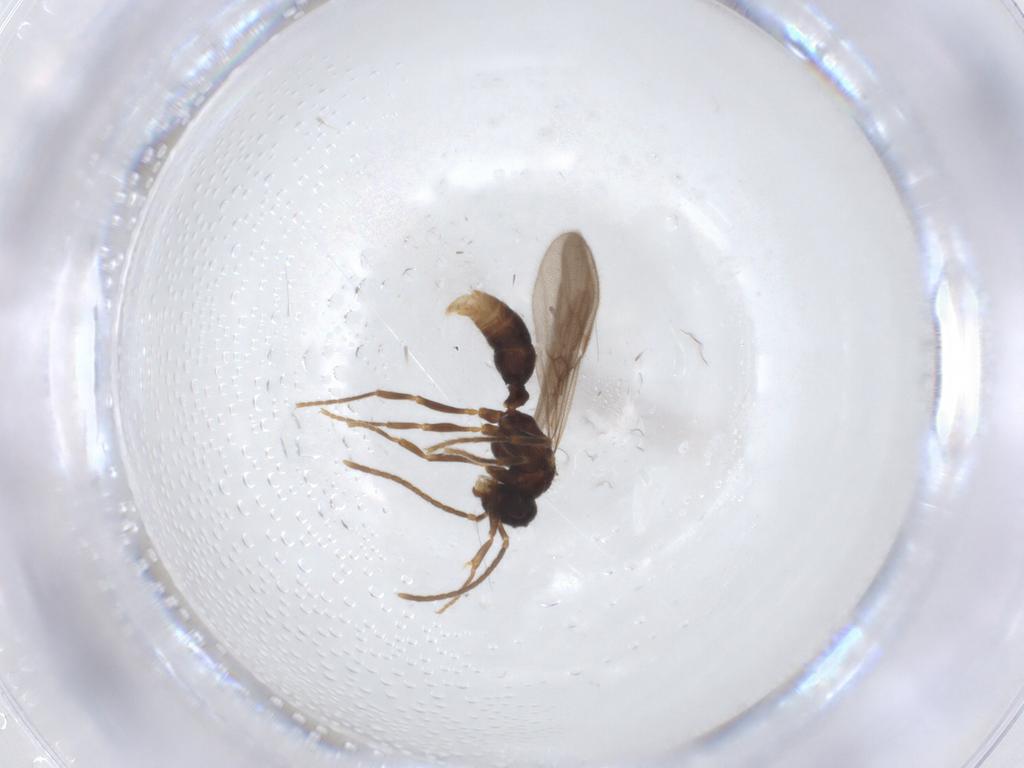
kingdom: Animalia
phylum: Arthropoda
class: Insecta
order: Hymenoptera
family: Formicidae
